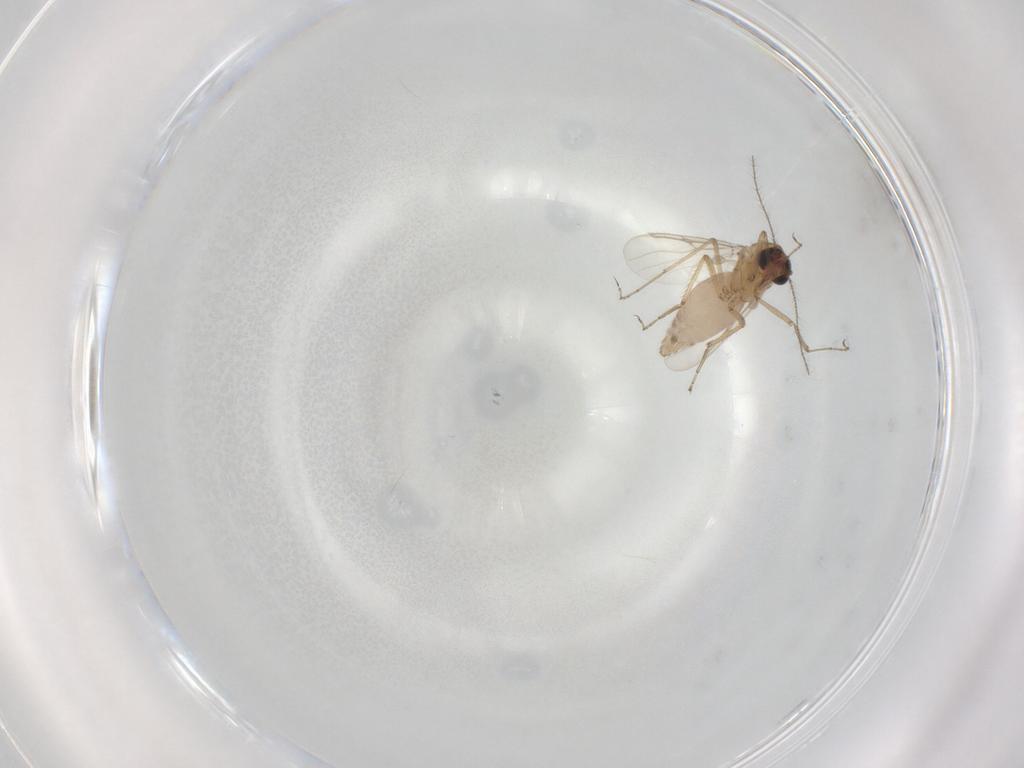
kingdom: Animalia
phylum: Arthropoda
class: Insecta
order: Diptera
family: Ceratopogonidae
